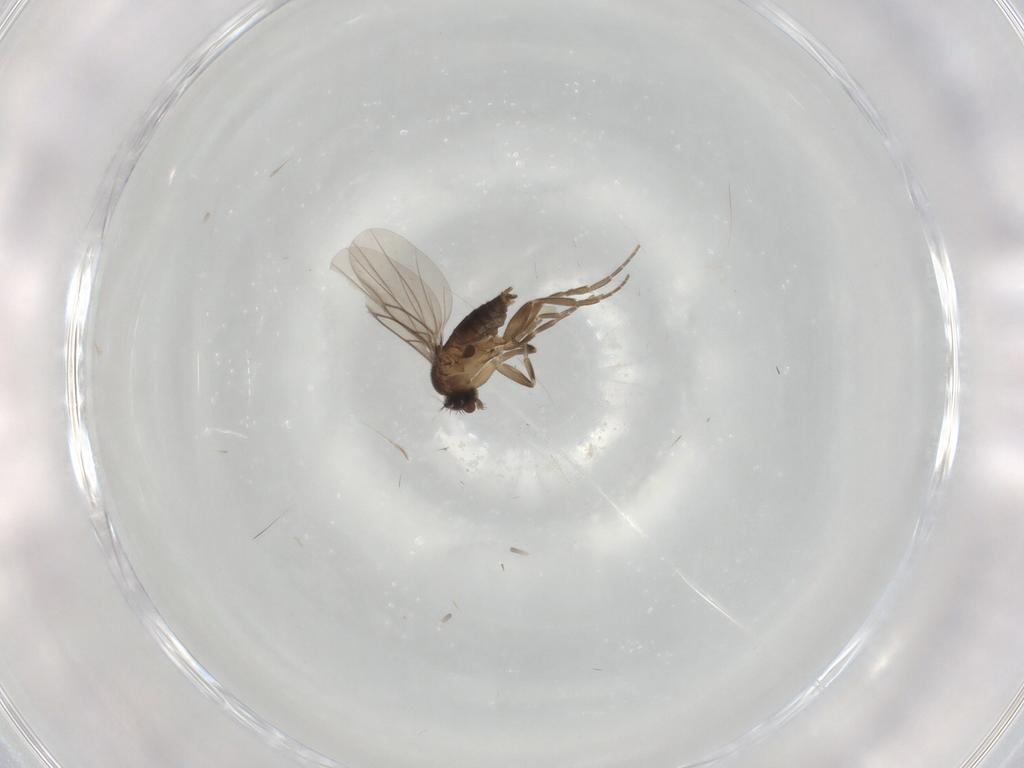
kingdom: Animalia
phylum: Arthropoda
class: Insecta
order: Diptera
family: Phoridae
